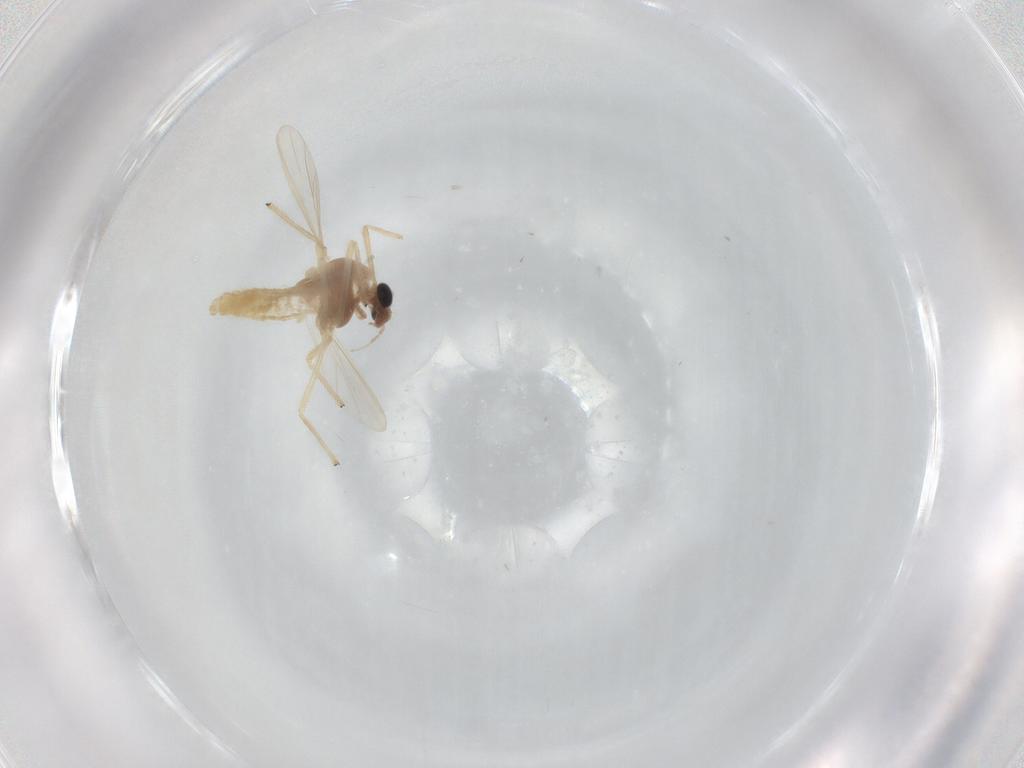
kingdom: Animalia
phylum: Arthropoda
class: Insecta
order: Diptera
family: Chironomidae
